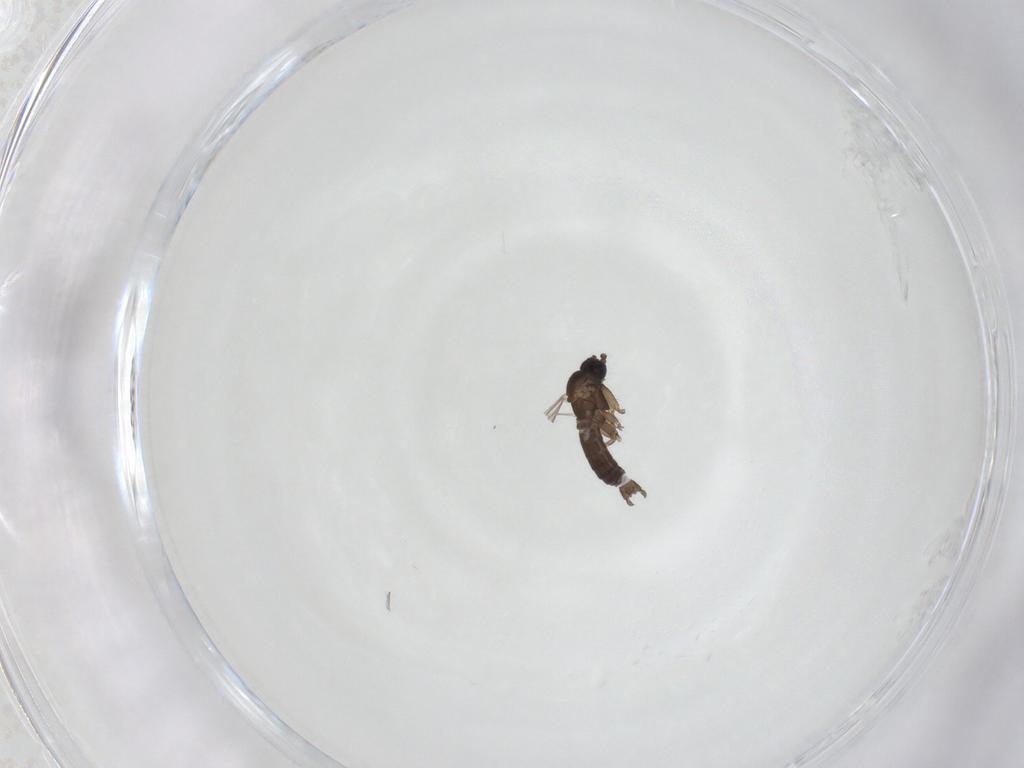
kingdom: Animalia
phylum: Arthropoda
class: Insecta
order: Diptera
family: Sciaridae
